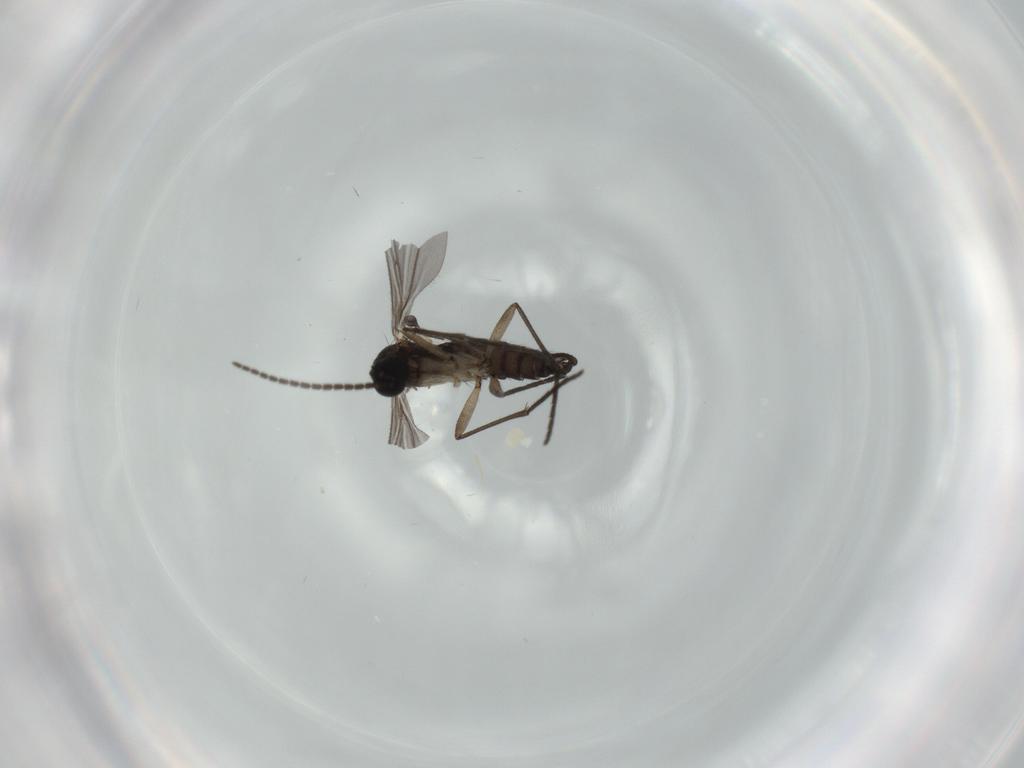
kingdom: Animalia
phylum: Arthropoda
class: Insecta
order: Diptera
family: Sciaridae
